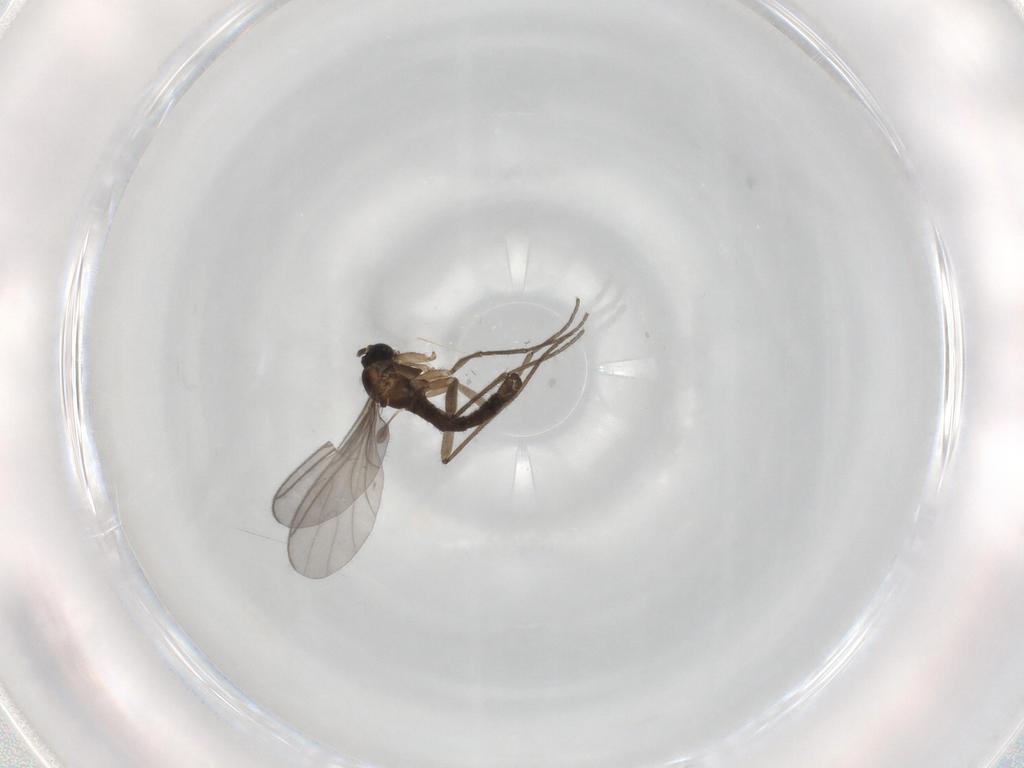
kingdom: Animalia
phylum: Arthropoda
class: Insecta
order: Diptera
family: Sciaridae
